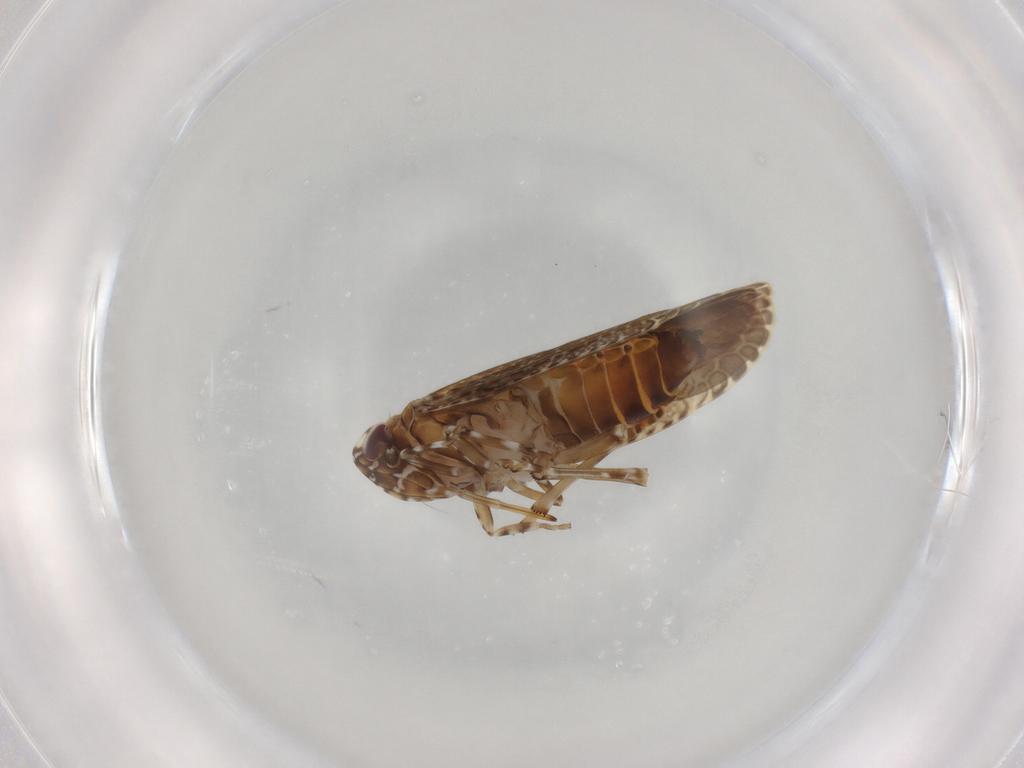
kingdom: Animalia
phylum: Arthropoda
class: Insecta
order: Hemiptera
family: Achilidae
